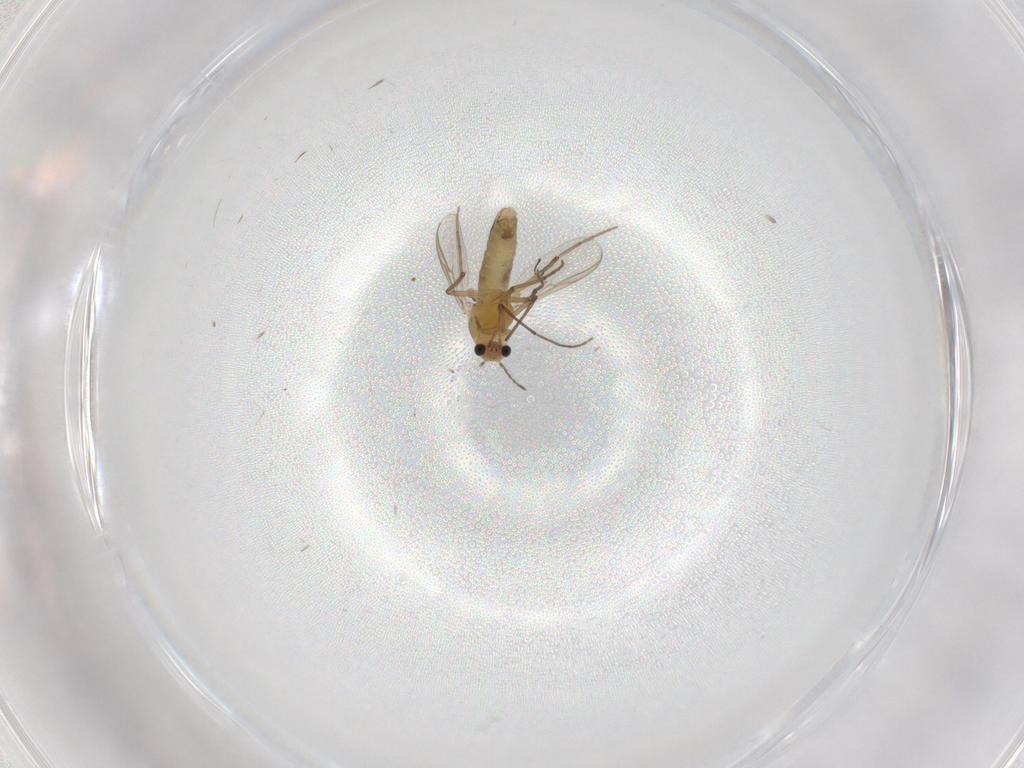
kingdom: Animalia
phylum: Arthropoda
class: Insecta
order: Diptera
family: Chironomidae
